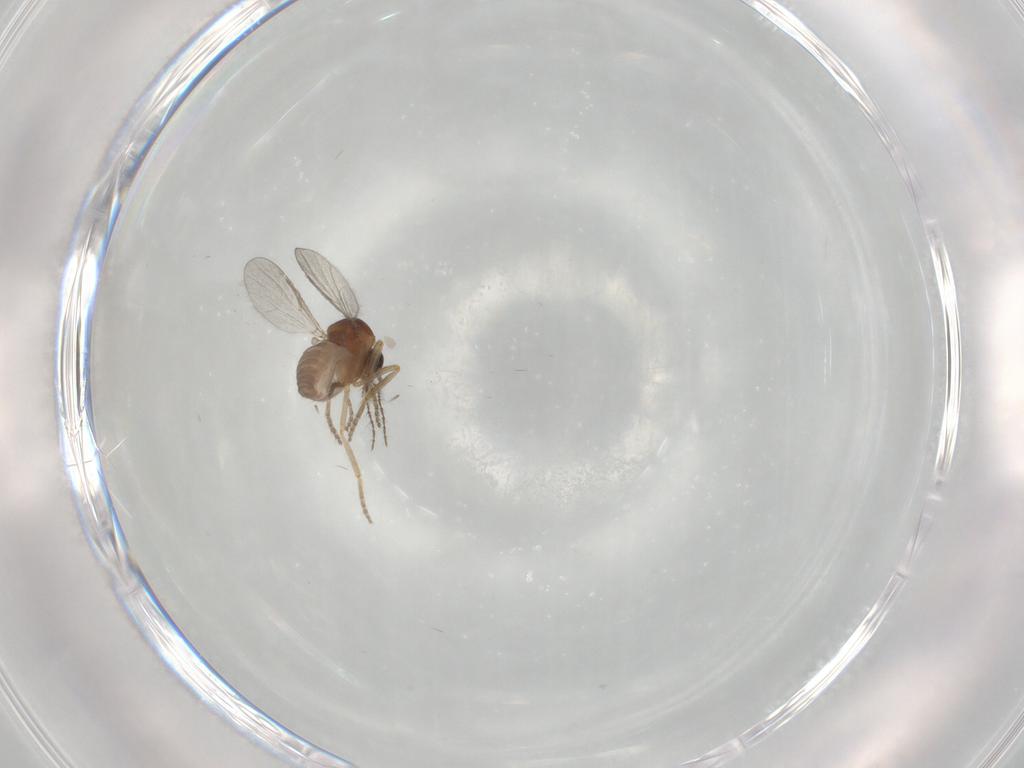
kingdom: Animalia
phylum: Arthropoda
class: Insecta
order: Diptera
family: Ceratopogonidae
